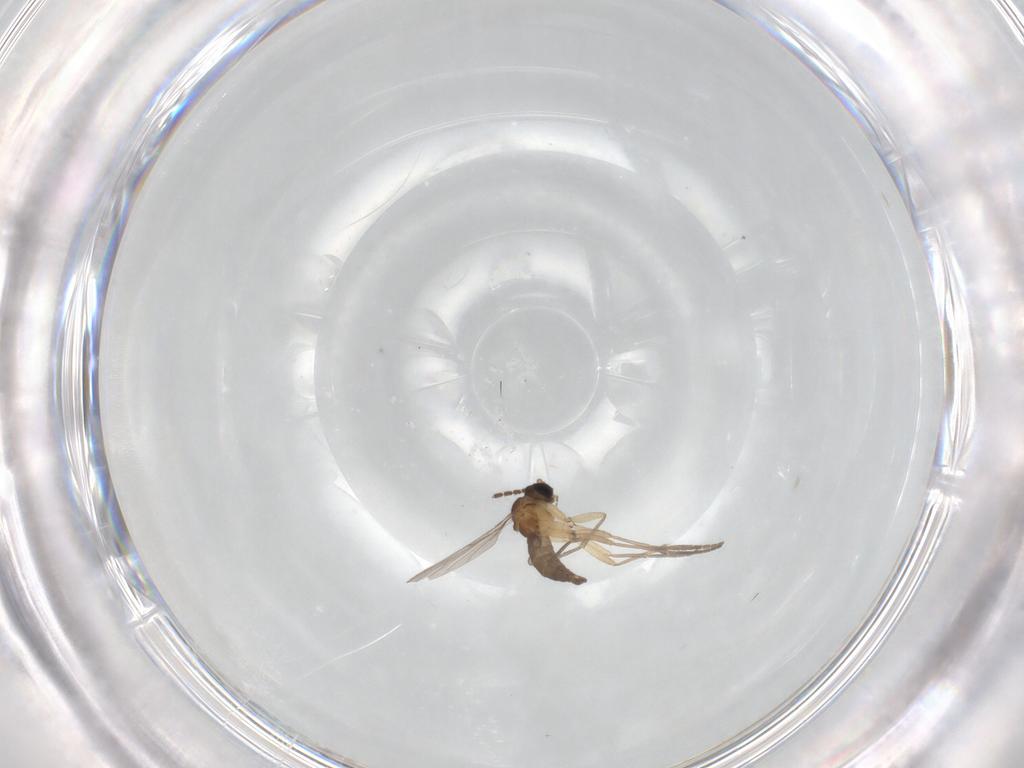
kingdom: Animalia
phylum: Arthropoda
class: Insecta
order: Diptera
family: Sciaridae
